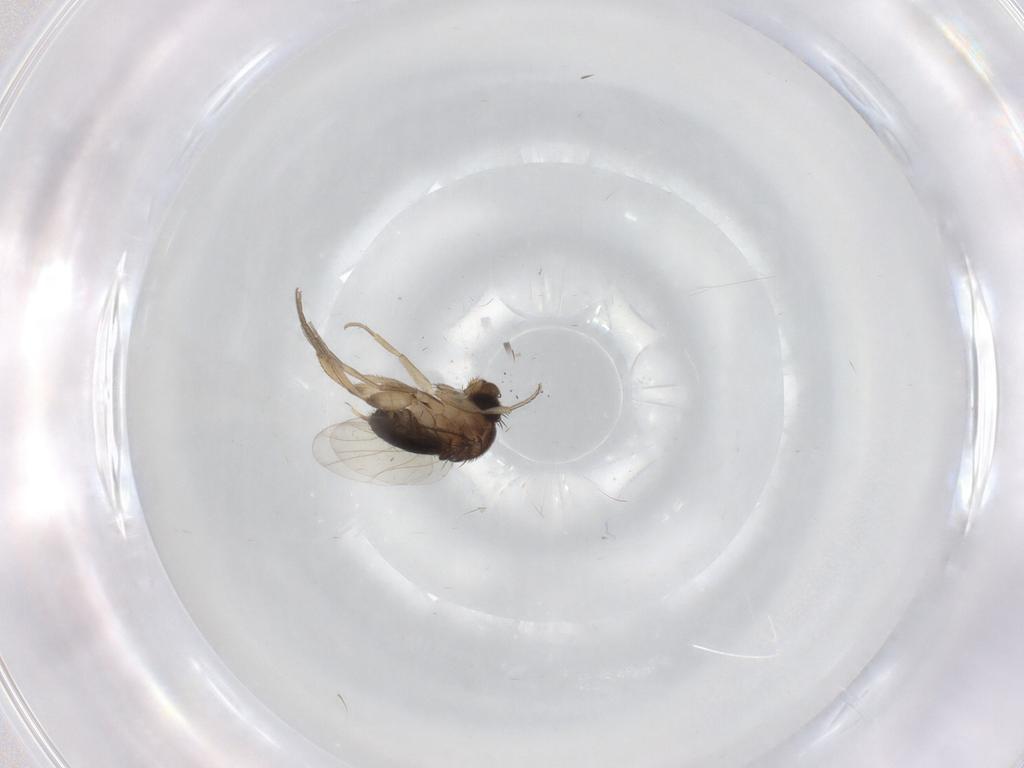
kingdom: Animalia
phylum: Arthropoda
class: Insecta
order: Diptera
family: Phoridae
